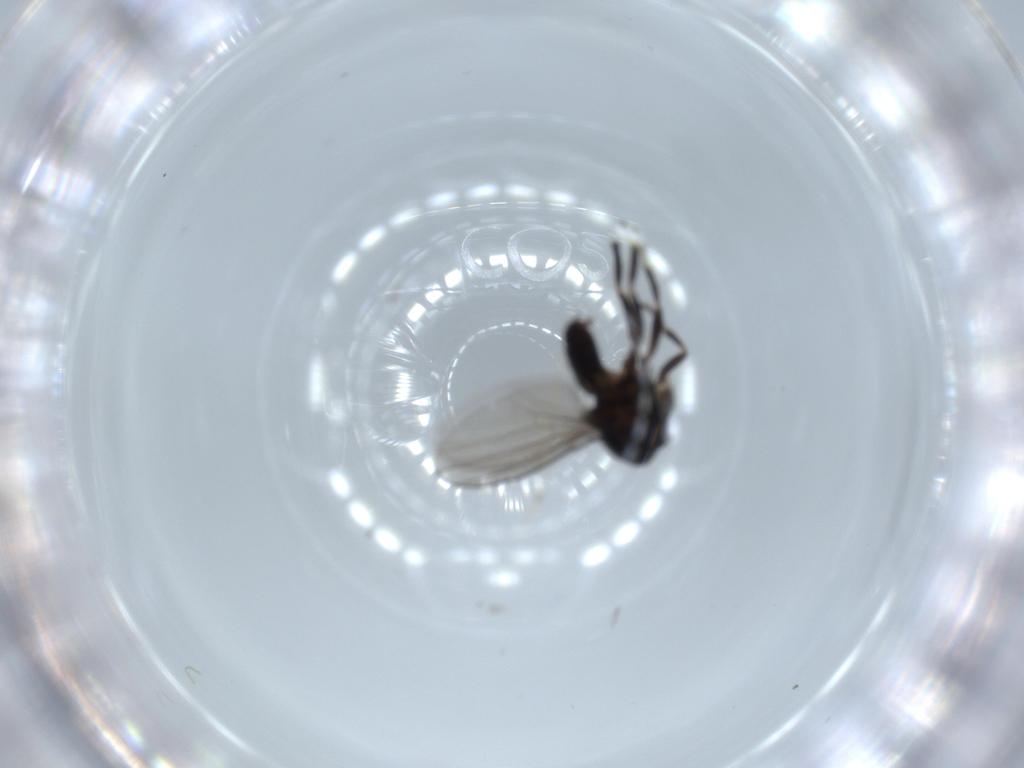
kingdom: Animalia
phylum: Arthropoda
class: Insecta
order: Diptera
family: Milichiidae
